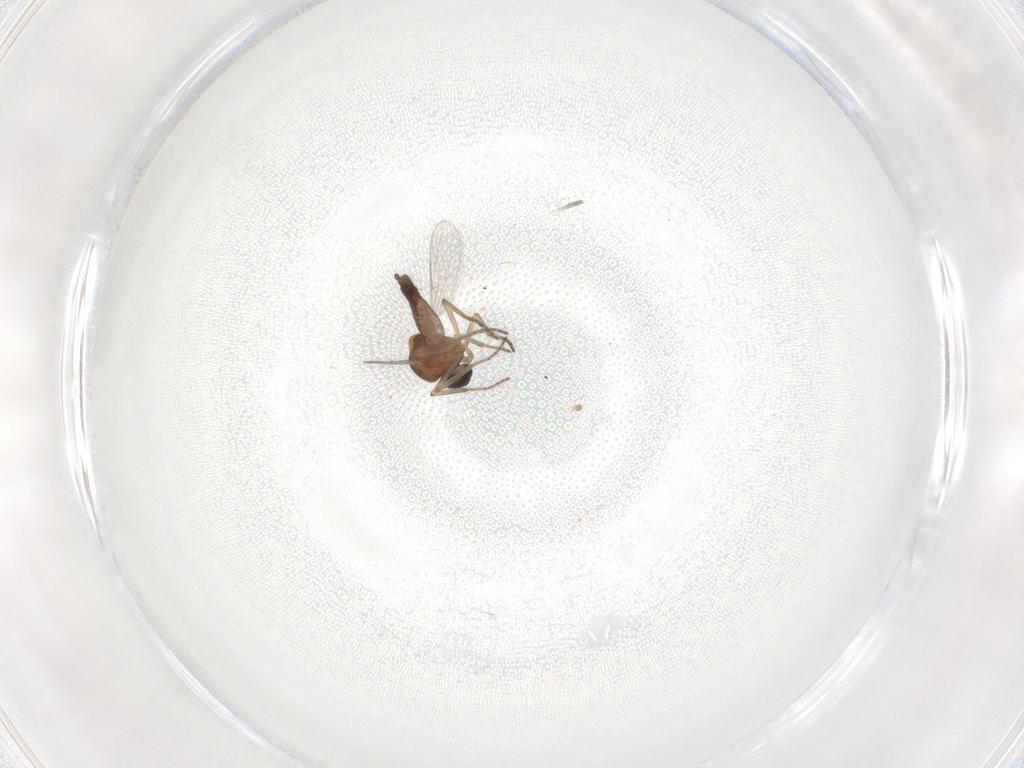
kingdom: Animalia
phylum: Arthropoda
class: Insecta
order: Diptera
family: Ceratopogonidae
